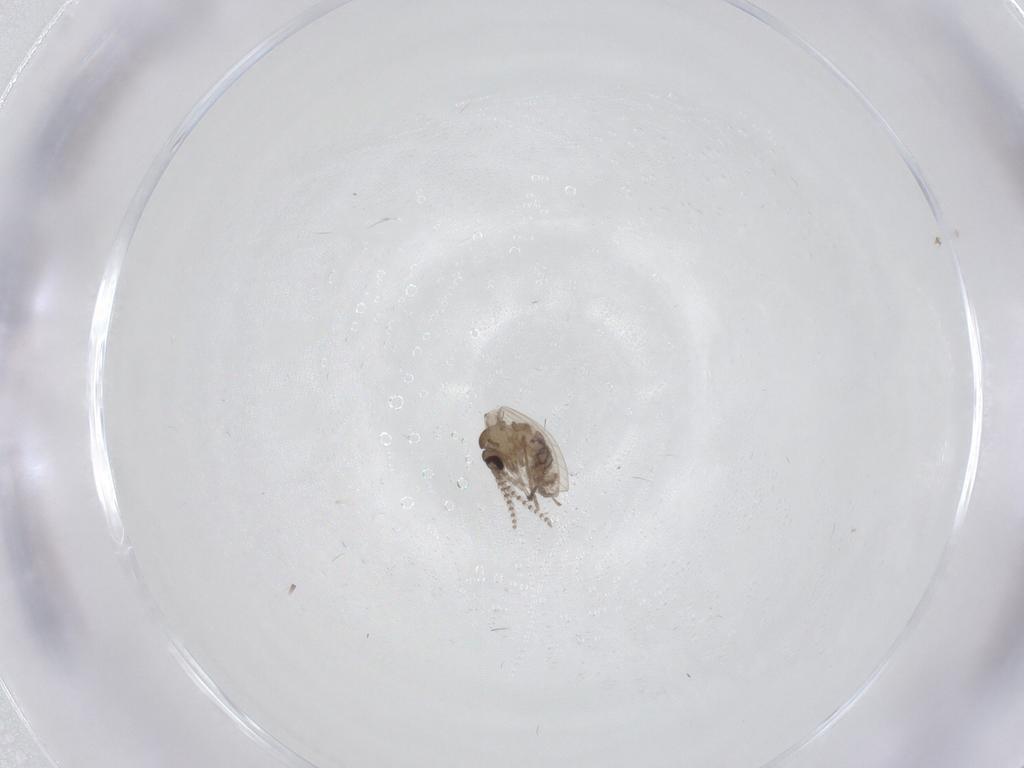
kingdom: Animalia
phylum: Arthropoda
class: Insecta
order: Diptera
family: Psychodidae
